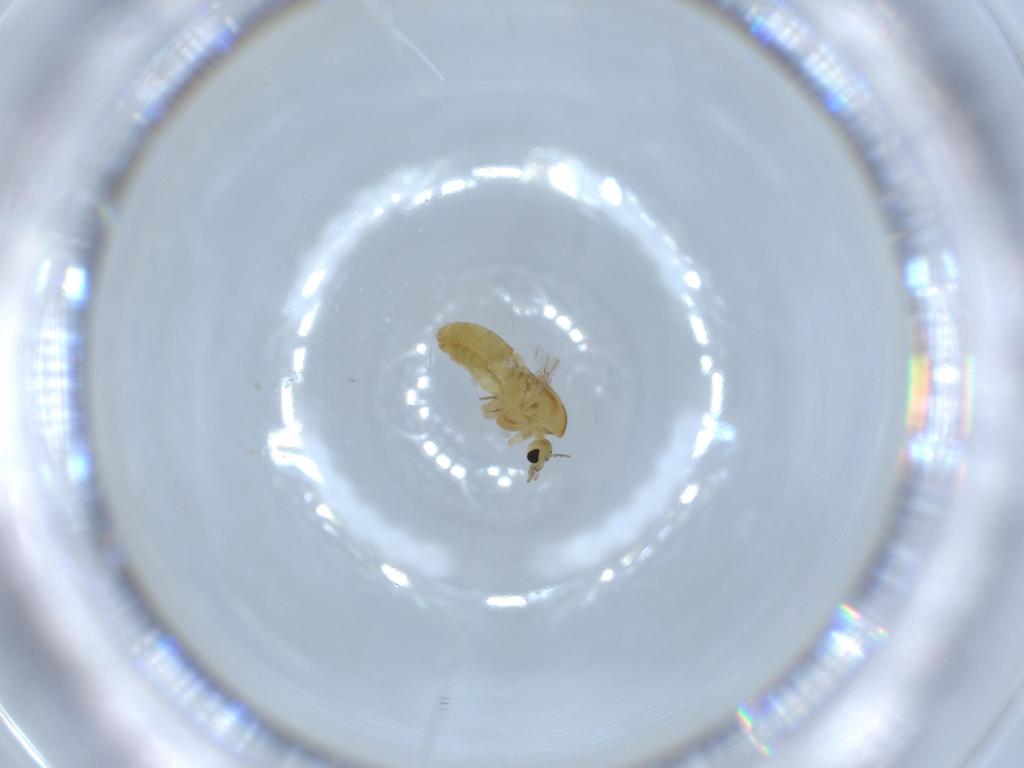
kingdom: Animalia
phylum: Arthropoda
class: Insecta
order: Diptera
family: Chironomidae
